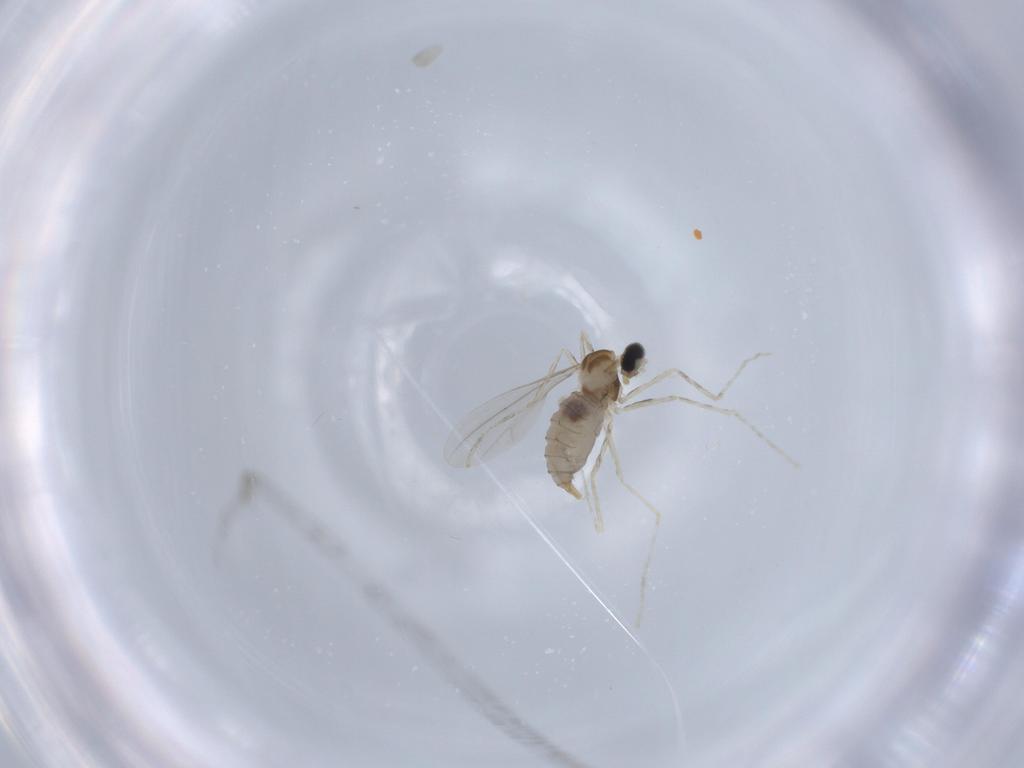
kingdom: Animalia
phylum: Arthropoda
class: Insecta
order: Diptera
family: Cecidomyiidae
